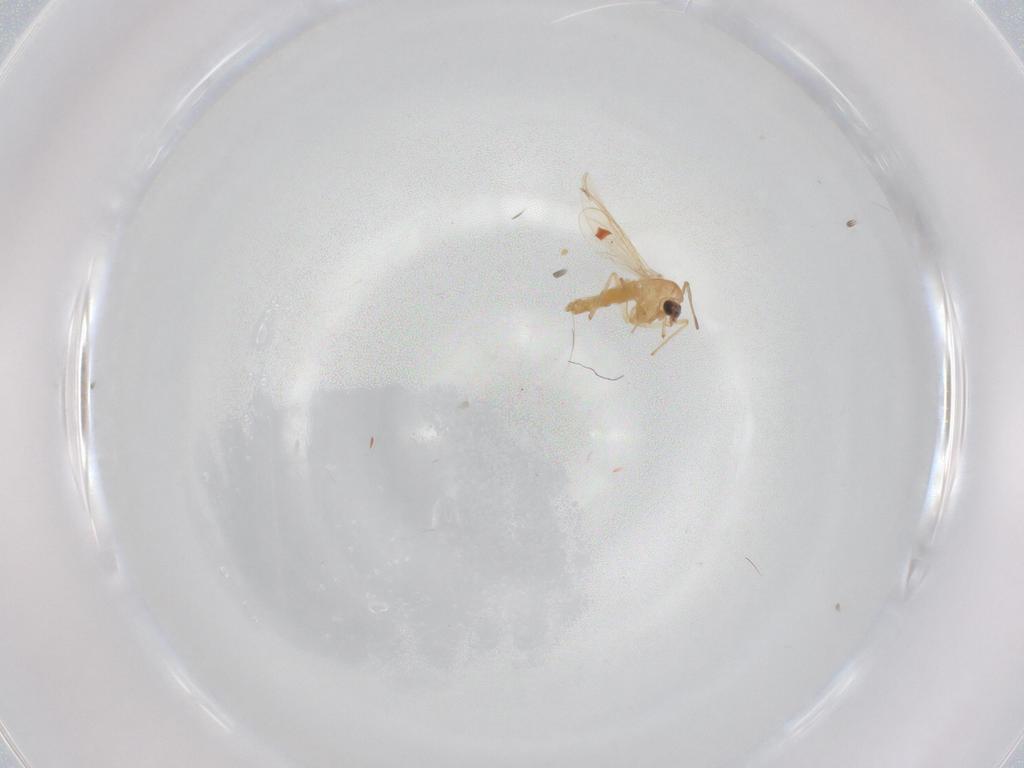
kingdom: Animalia
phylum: Arthropoda
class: Insecta
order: Diptera
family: Chironomidae
